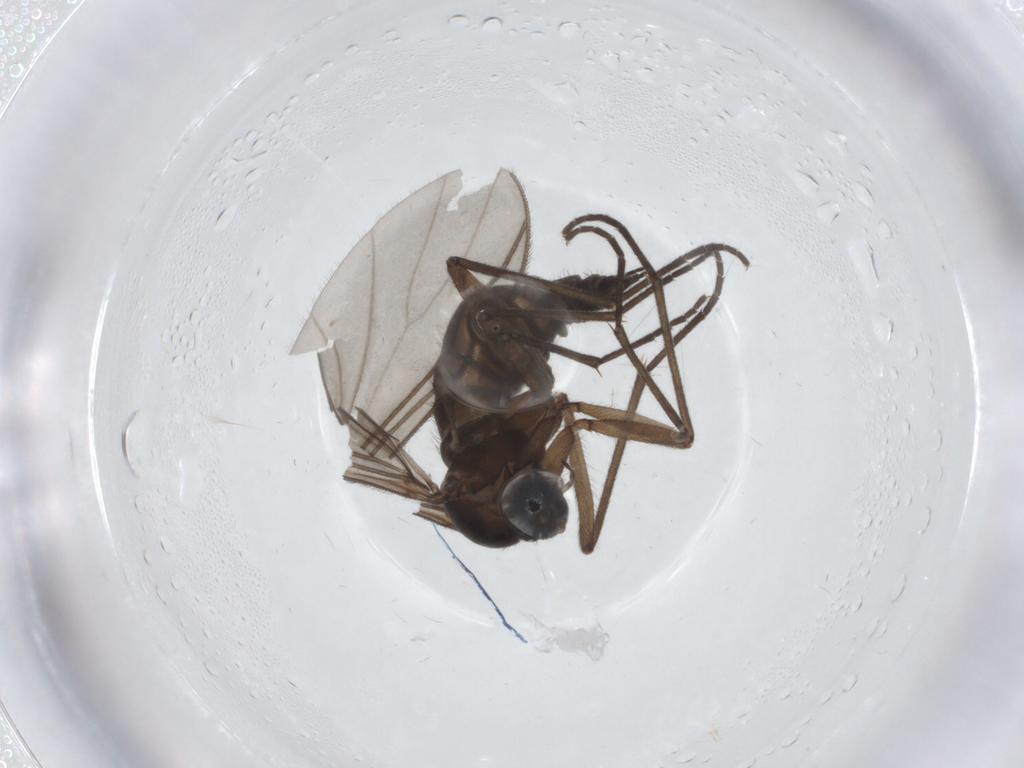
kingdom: Animalia
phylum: Arthropoda
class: Insecta
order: Diptera
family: Sciaridae
